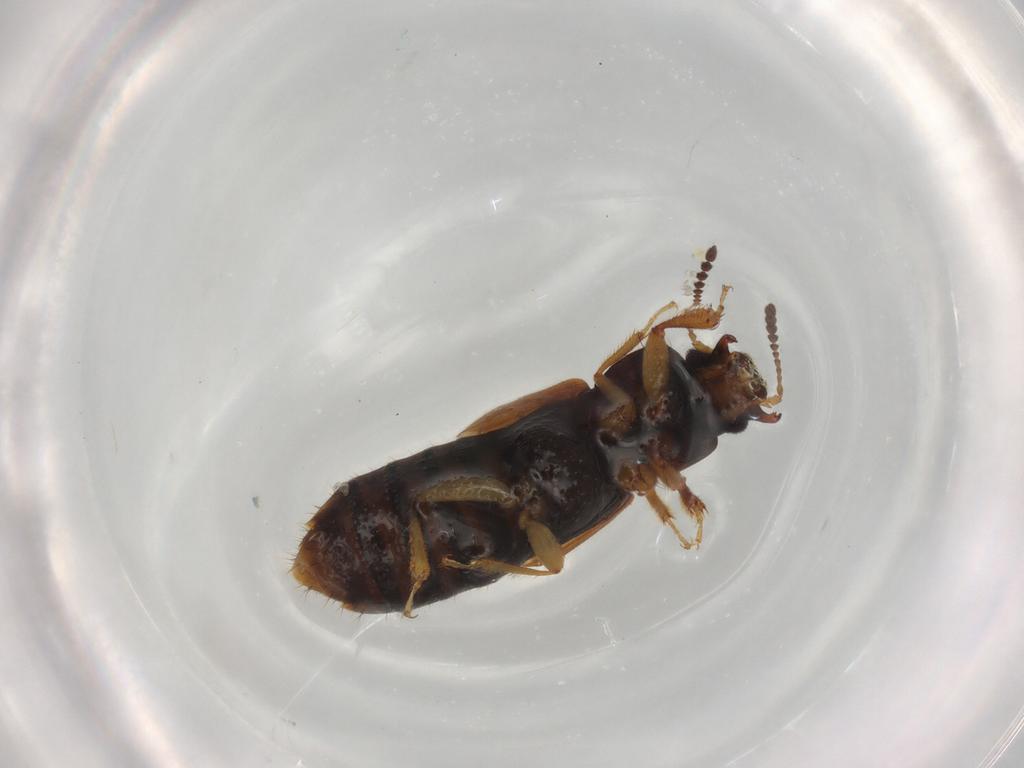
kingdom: Animalia
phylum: Arthropoda
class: Insecta
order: Coleoptera
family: Staphylinidae
